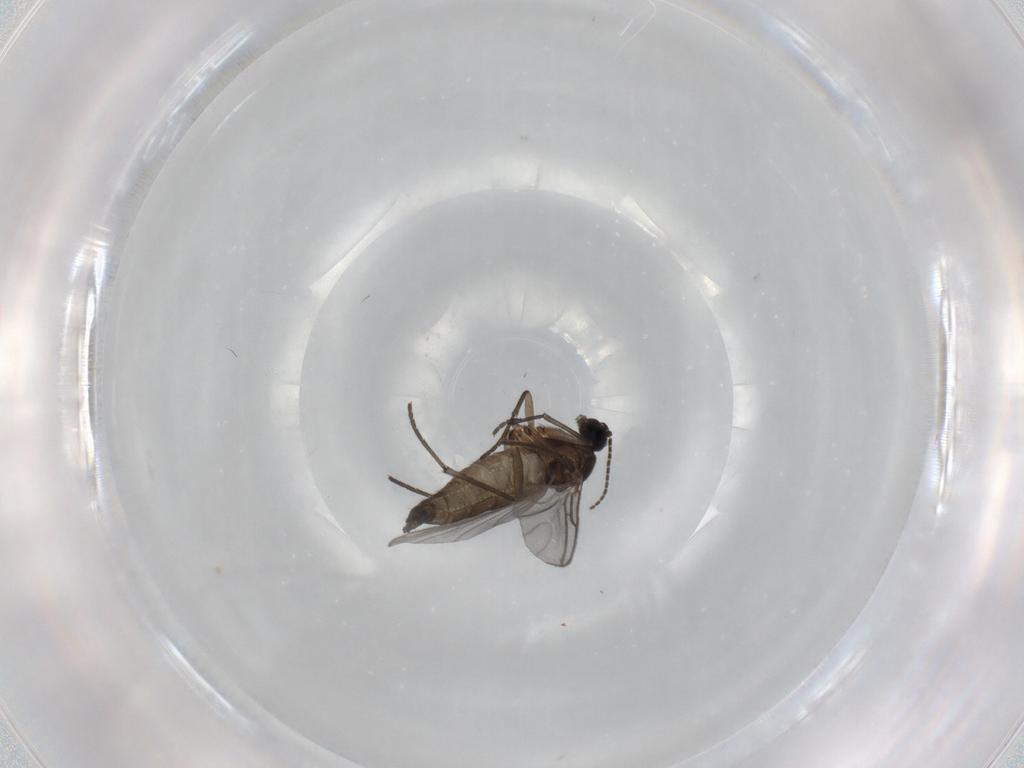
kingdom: Animalia
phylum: Arthropoda
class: Insecta
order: Diptera
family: Sciaridae
